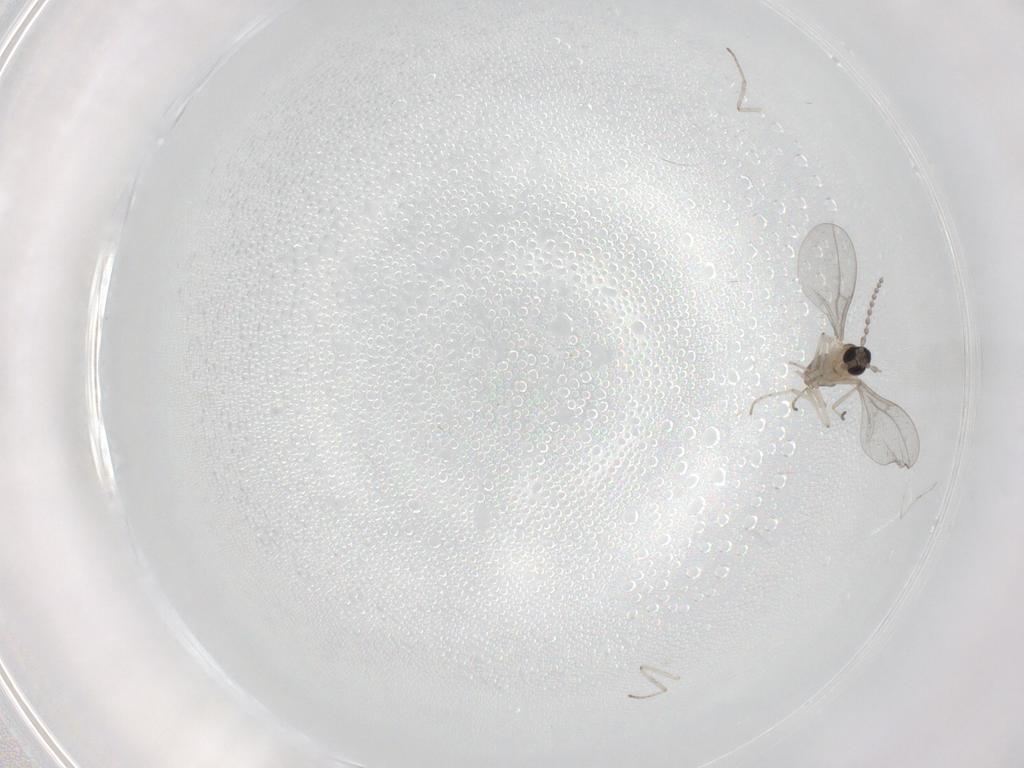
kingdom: Animalia
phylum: Arthropoda
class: Insecta
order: Diptera
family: Cecidomyiidae
